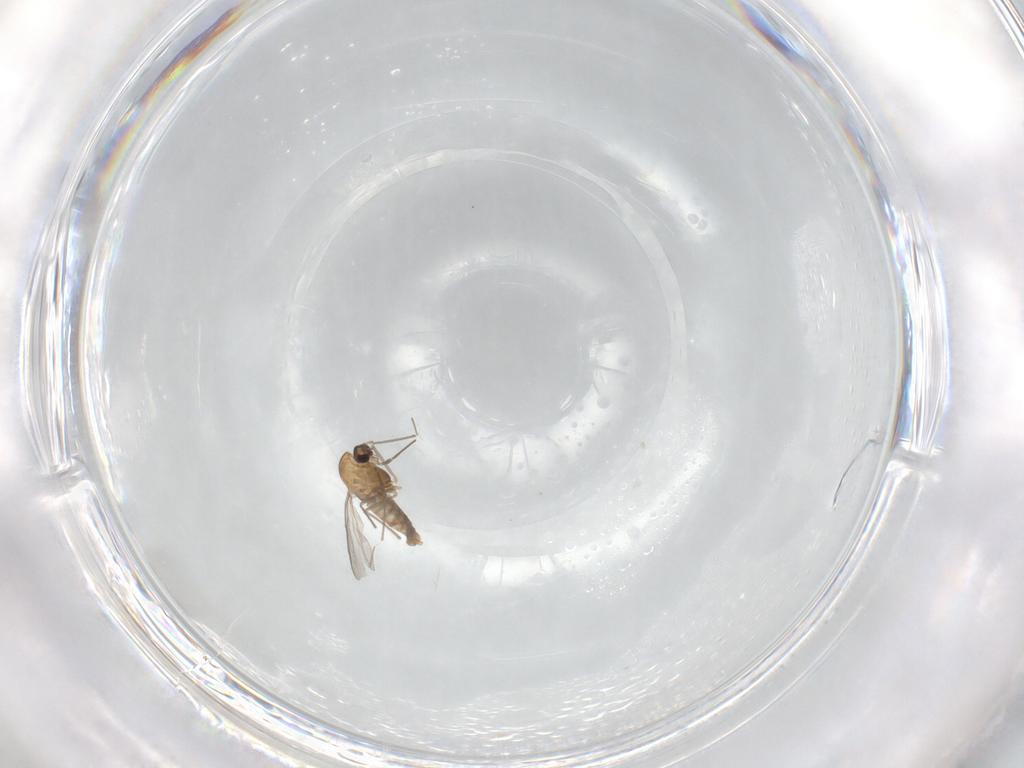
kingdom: Animalia
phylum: Arthropoda
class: Insecta
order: Diptera
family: Chironomidae
